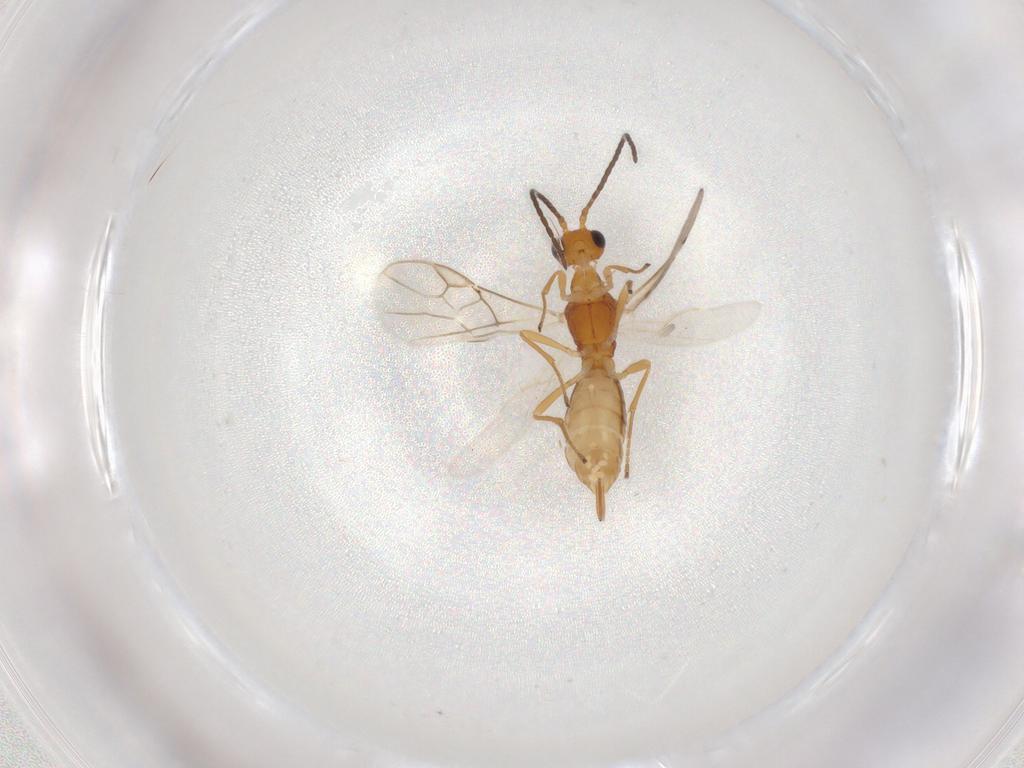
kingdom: Animalia
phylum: Arthropoda
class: Insecta
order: Hymenoptera
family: Braconidae
